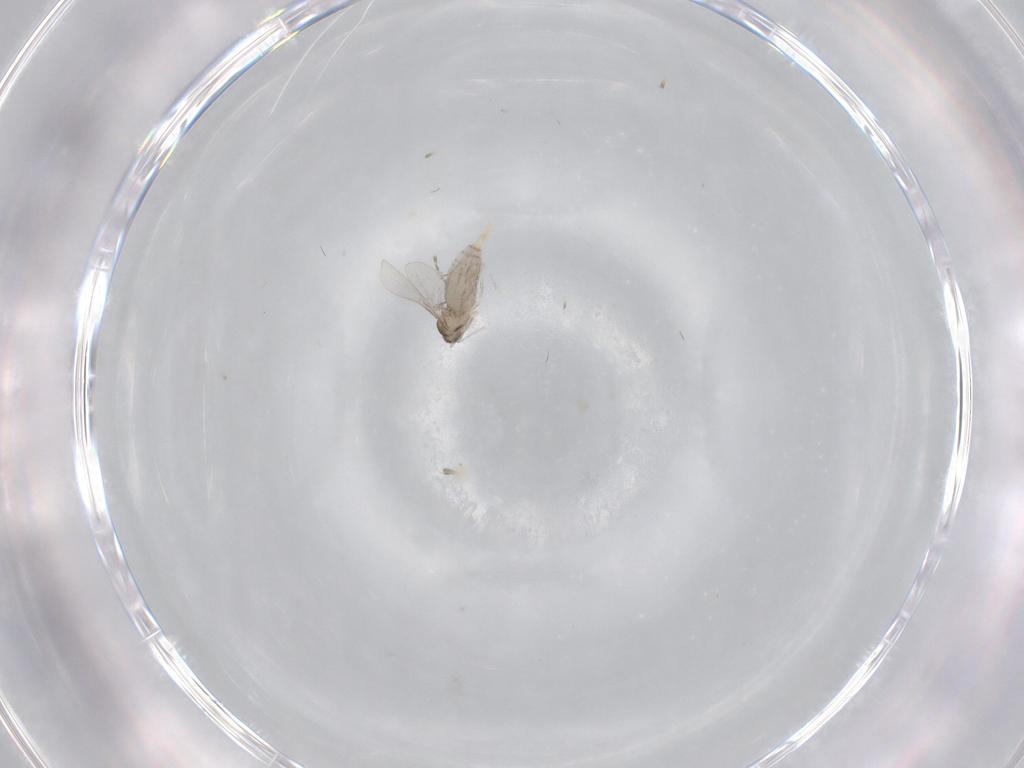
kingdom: Animalia
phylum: Arthropoda
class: Insecta
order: Diptera
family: Sciaridae
